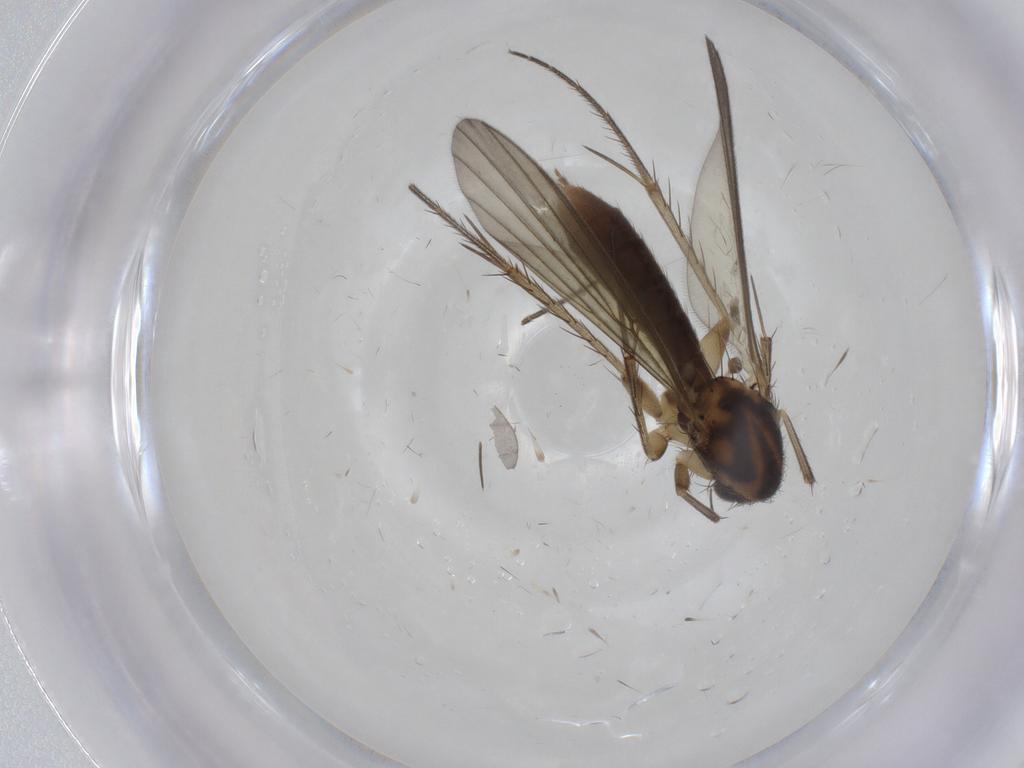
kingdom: Animalia
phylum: Arthropoda
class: Insecta
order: Diptera
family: Mycetophilidae
